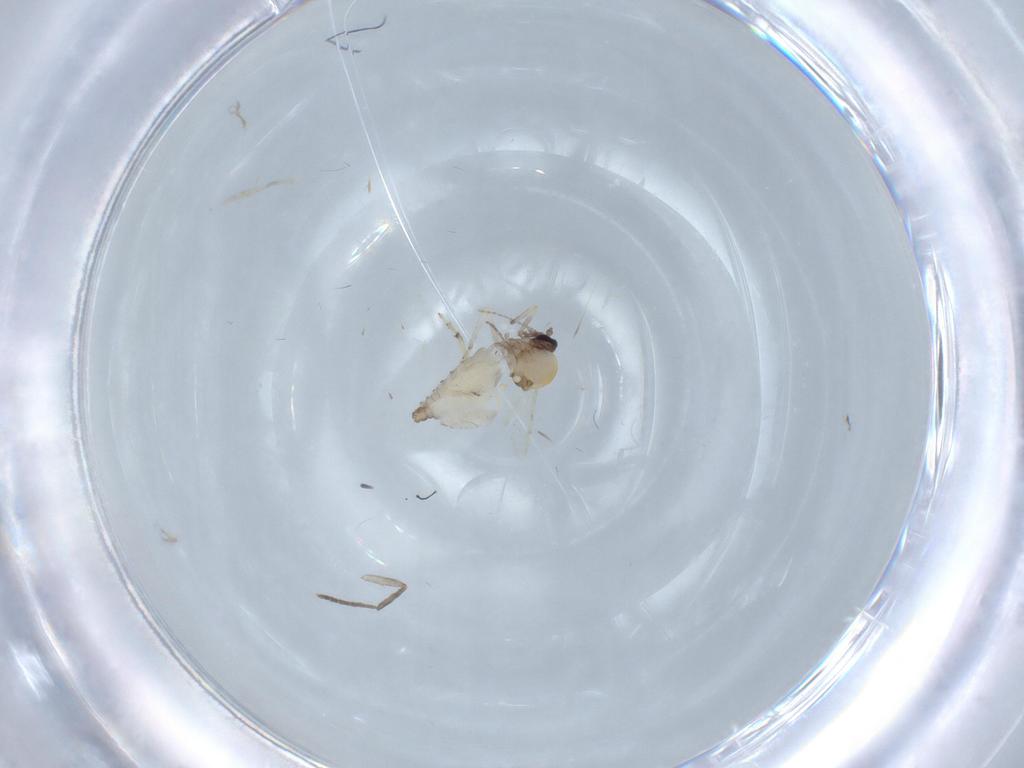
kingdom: Animalia
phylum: Arthropoda
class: Insecta
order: Diptera
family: Ceratopogonidae
